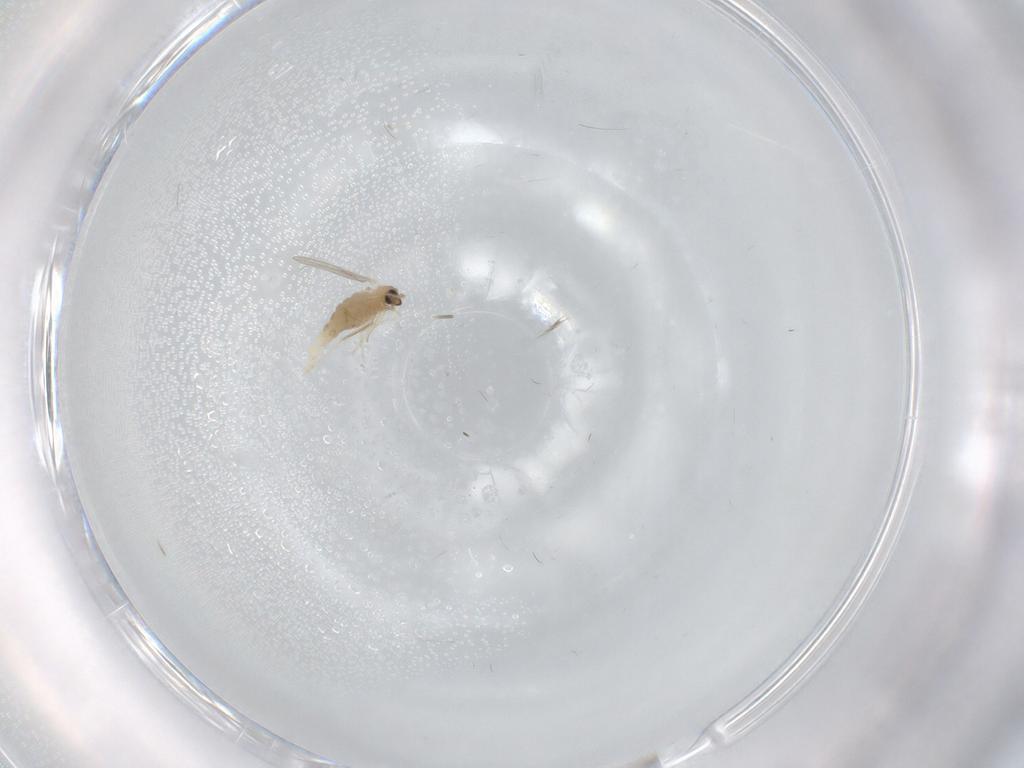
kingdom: Animalia
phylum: Arthropoda
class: Insecta
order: Diptera
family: Cecidomyiidae
